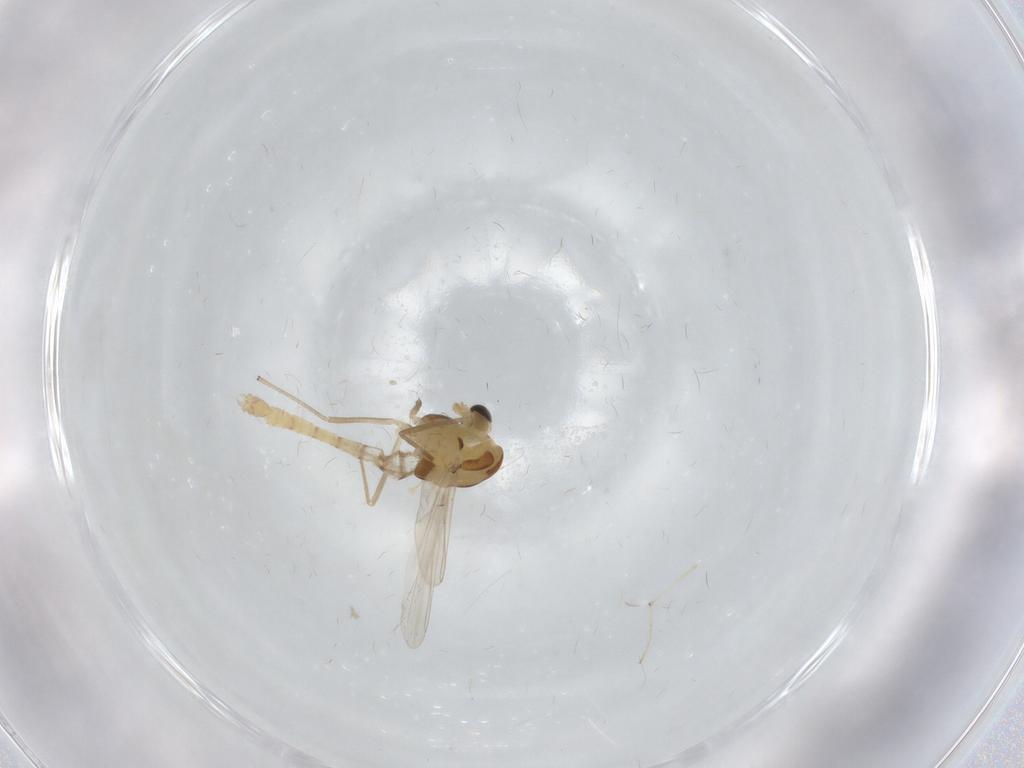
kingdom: Animalia
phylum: Arthropoda
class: Insecta
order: Diptera
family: Chironomidae
